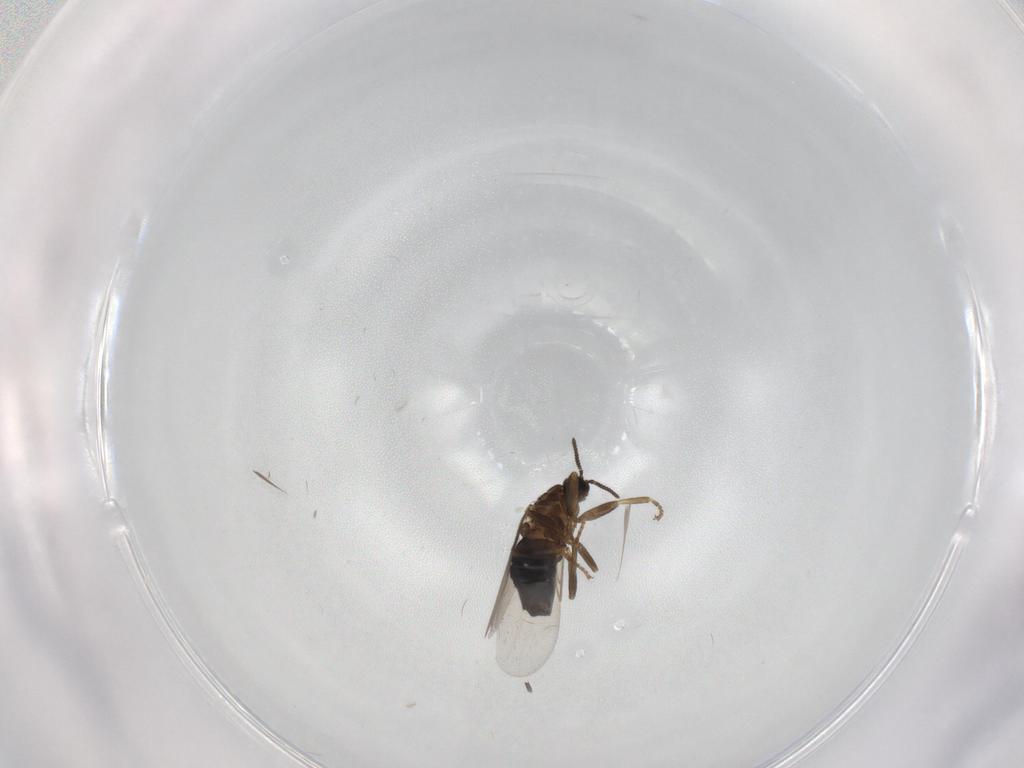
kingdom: Animalia
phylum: Arthropoda
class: Insecta
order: Diptera
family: Scatopsidae
